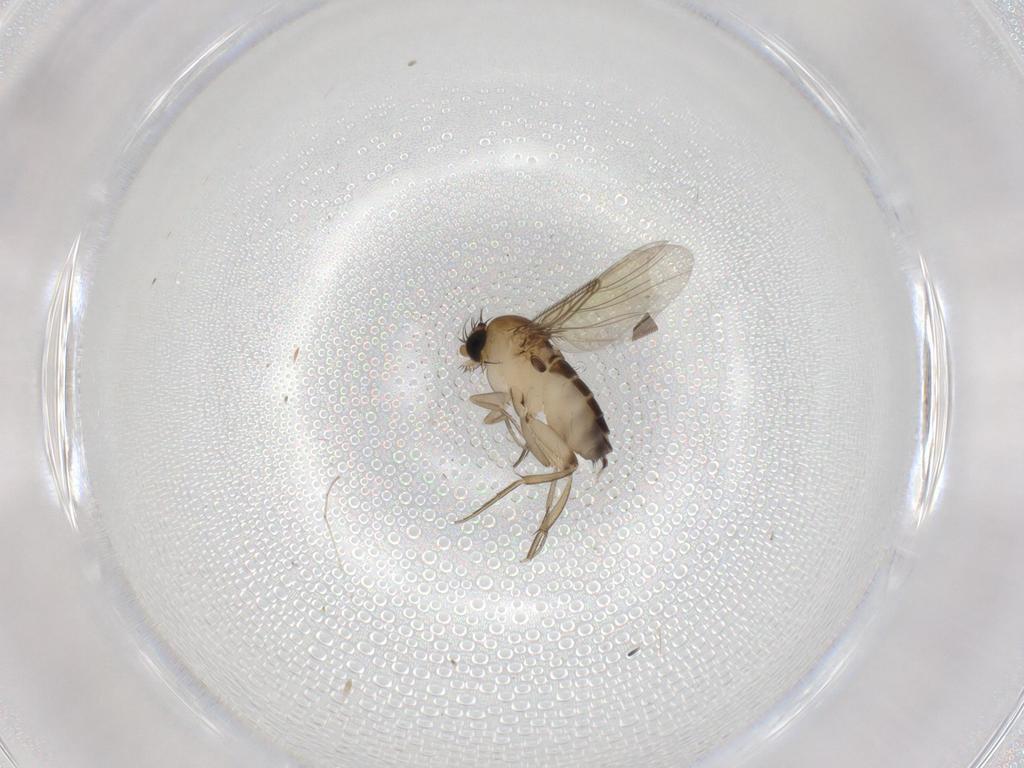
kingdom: Animalia
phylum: Arthropoda
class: Insecta
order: Diptera
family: Phoridae
